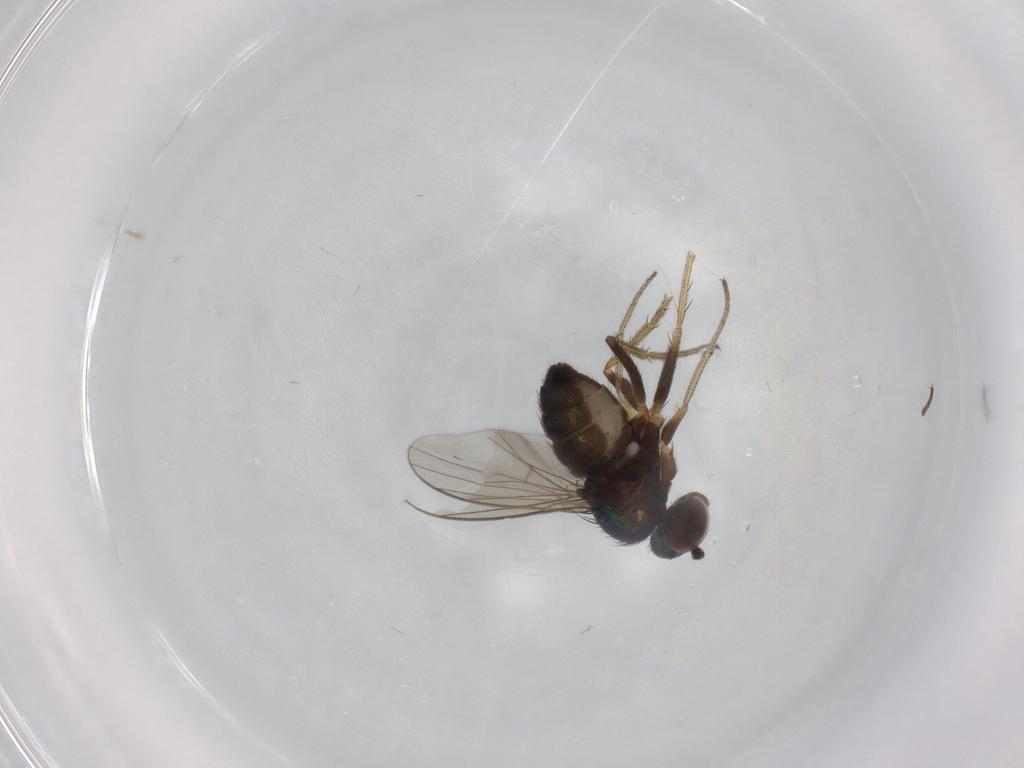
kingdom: Animalia
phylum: Arthropoda
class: Insecta
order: Diptera
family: Dolichopodidae
